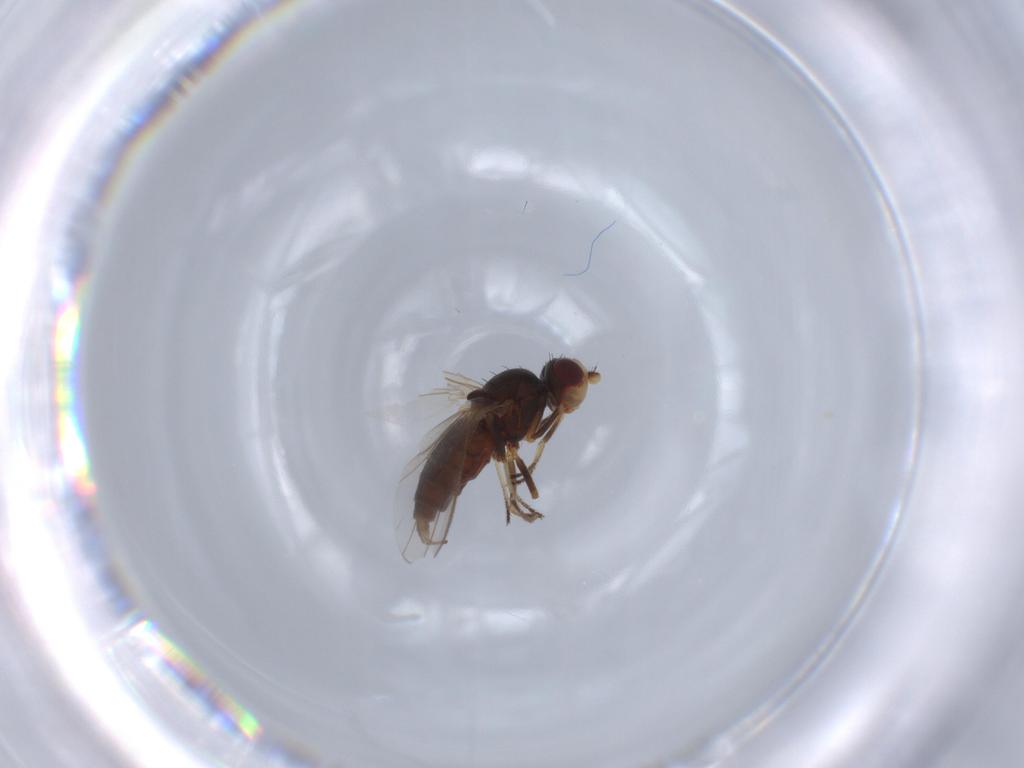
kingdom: Animalia
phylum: Arthropoda
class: Insecta
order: Diptera
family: Canacidae
